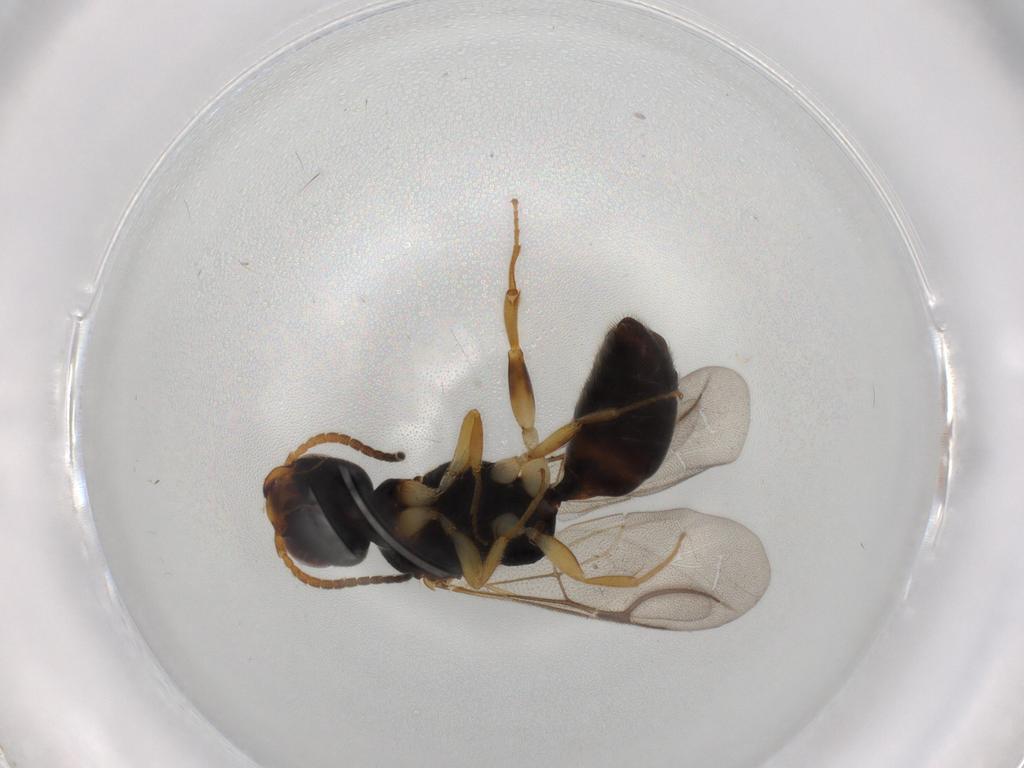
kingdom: Animalia
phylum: Arthropoda
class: Insecta
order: Hymenoptera
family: Bethylidae
